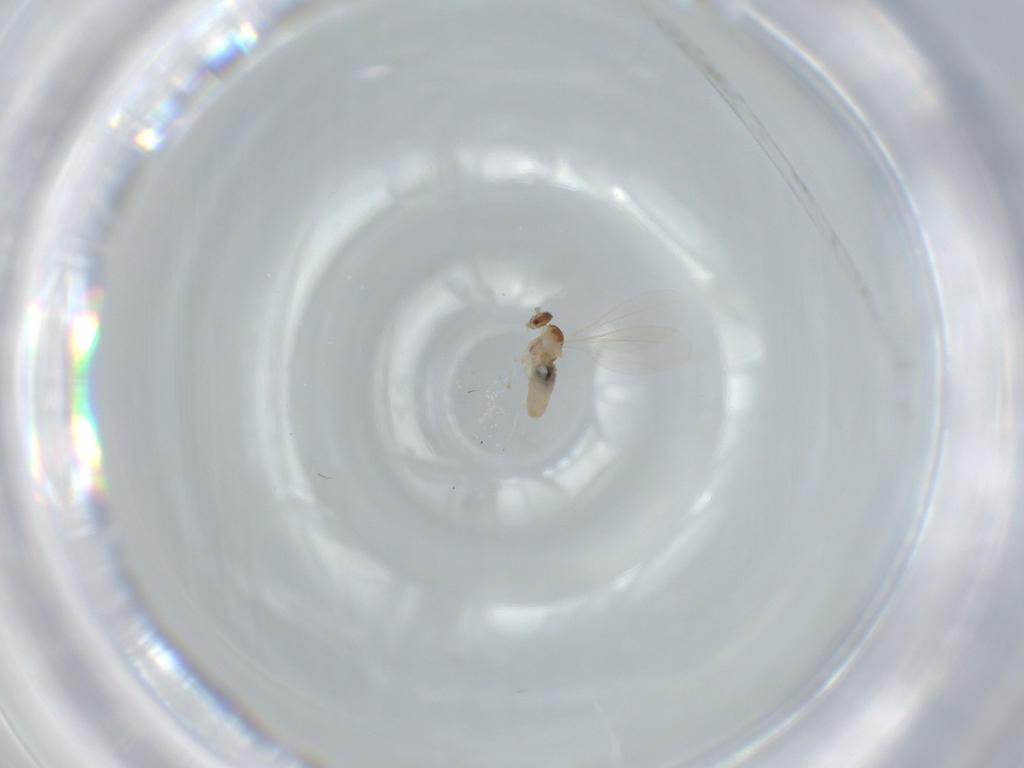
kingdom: Animalia
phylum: Arthropoda
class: Insecta
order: Diptera
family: Cecidomyiidae
